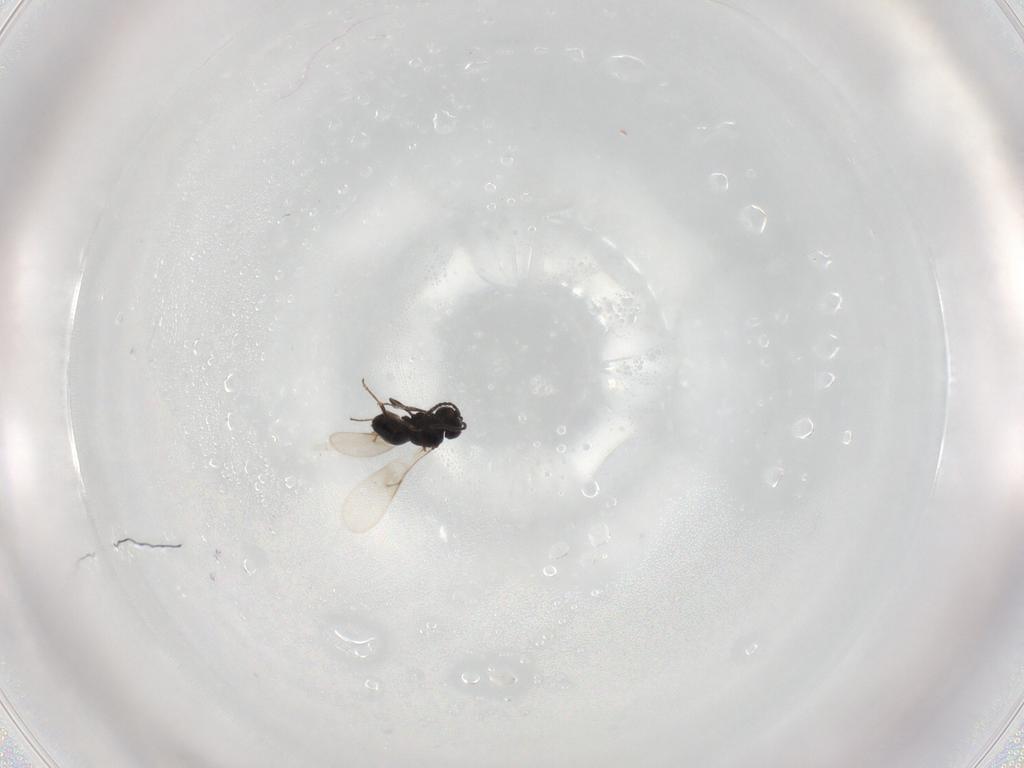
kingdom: Animalia
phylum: Arthropoda
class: Insecta
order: Hymenoptera
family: Scelionidae
